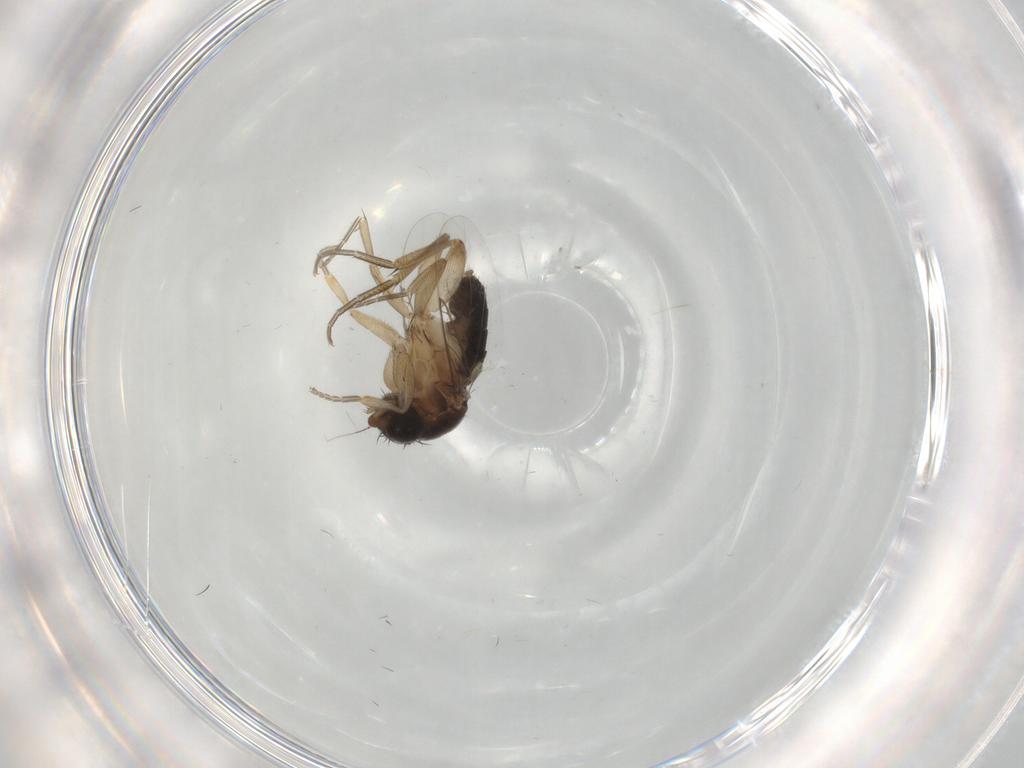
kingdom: Animalia
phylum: Arthropoda
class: Insecta
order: Diptera
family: Phoridae
